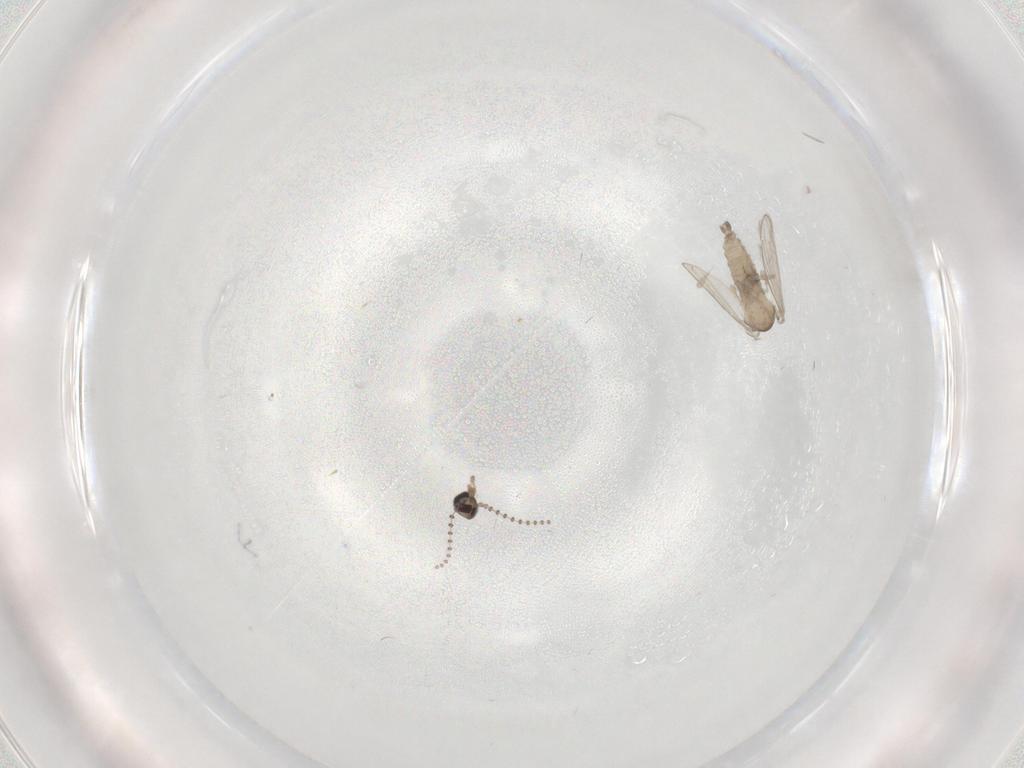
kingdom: Animalia
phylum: Arthropoda
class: Insecta
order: Diptera
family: Psychodidae
